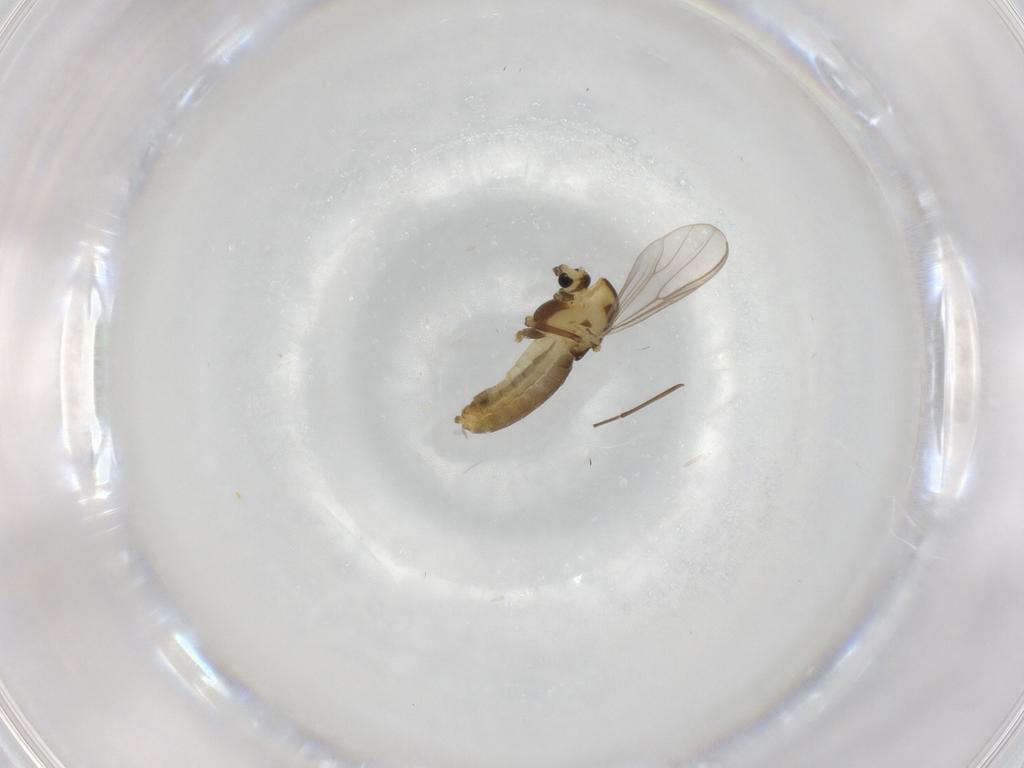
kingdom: Animalia
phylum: Arthropoda
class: Insecta
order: Diptera
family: Chironomidae
